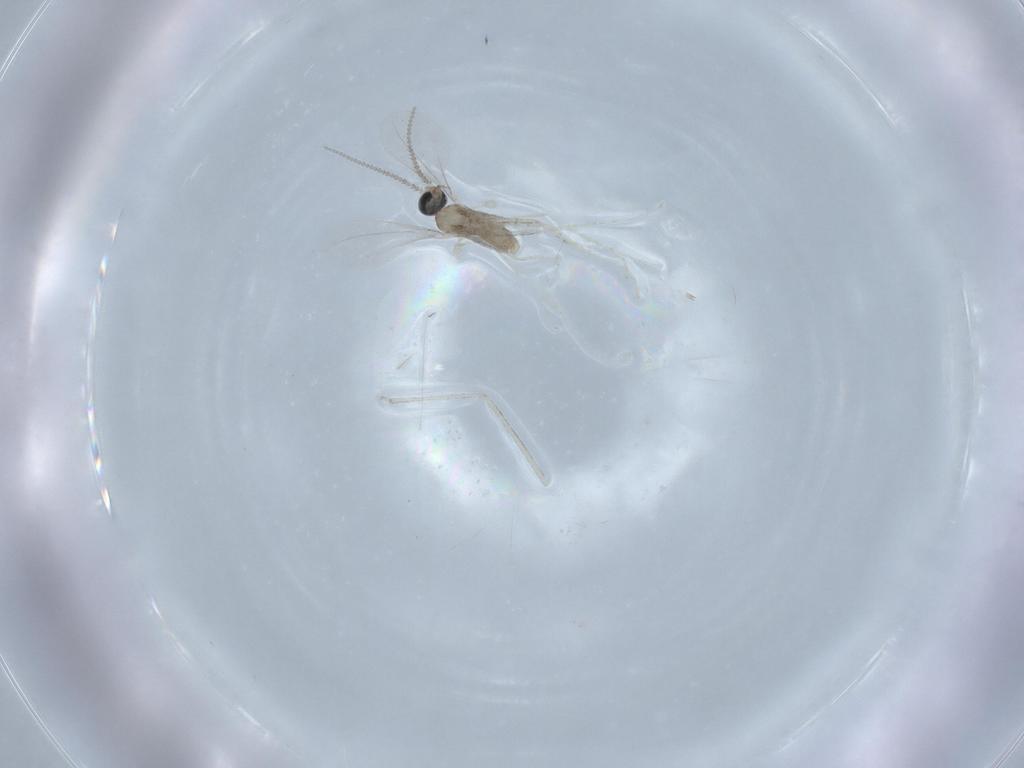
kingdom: Animalia
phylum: Arthropoda
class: Insecta
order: Diptera
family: Chironomidae
